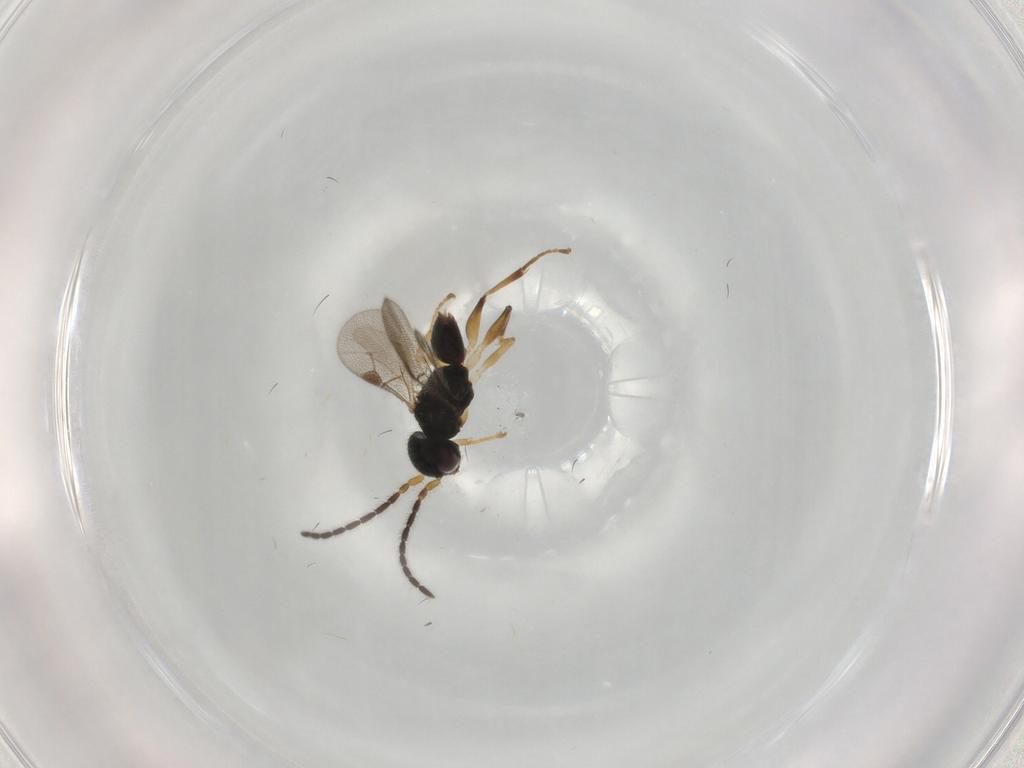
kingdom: Animalia
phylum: Arthropoda
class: Insecta
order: Hymenoptera
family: Dryinidae
